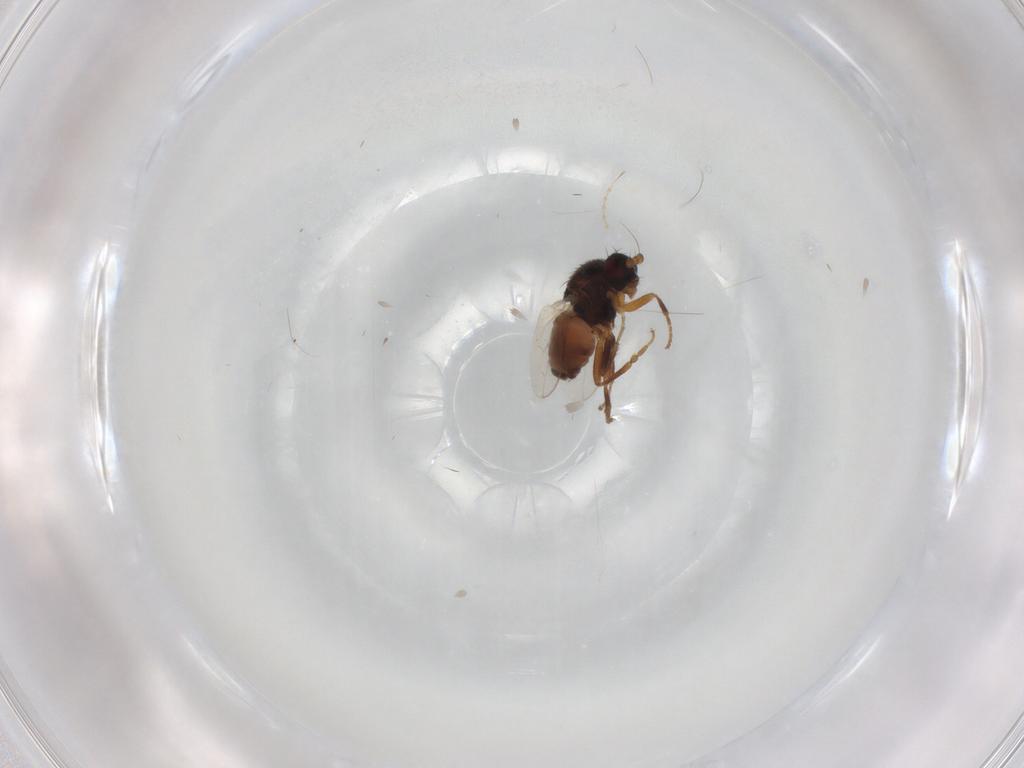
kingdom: Animalia
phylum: Arthropoda
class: Insecta
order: Diptera
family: Sphaeroceridae
